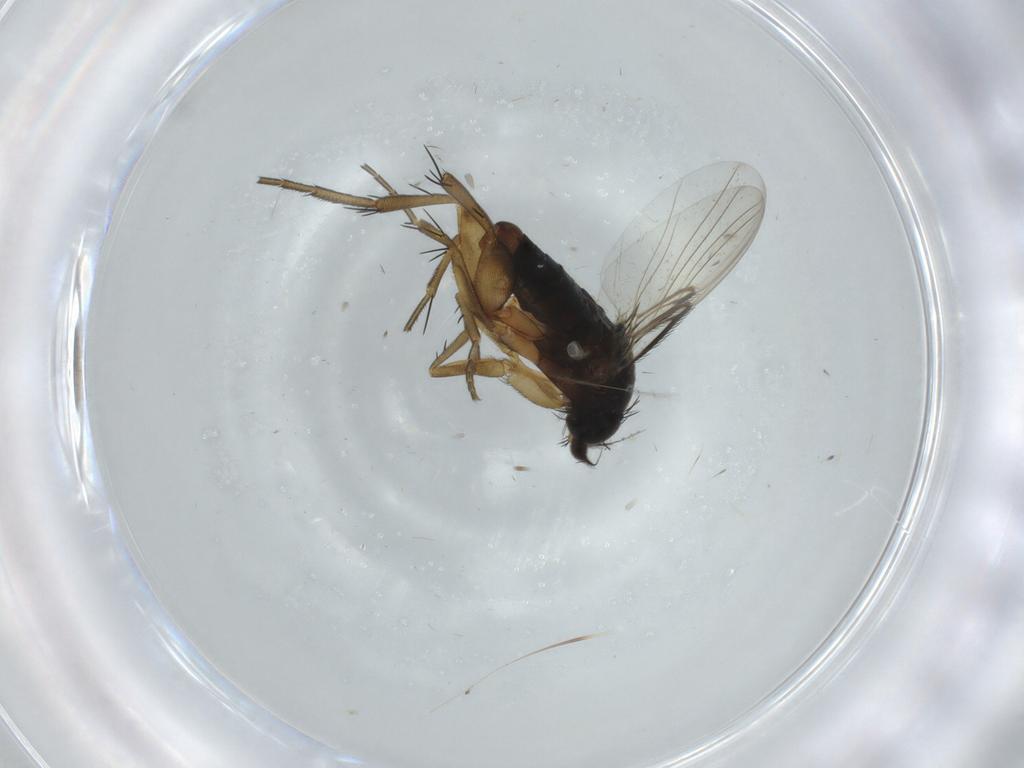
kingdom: Animalia
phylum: Arthropoda
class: Insecta
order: Diptera
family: Phoridae
